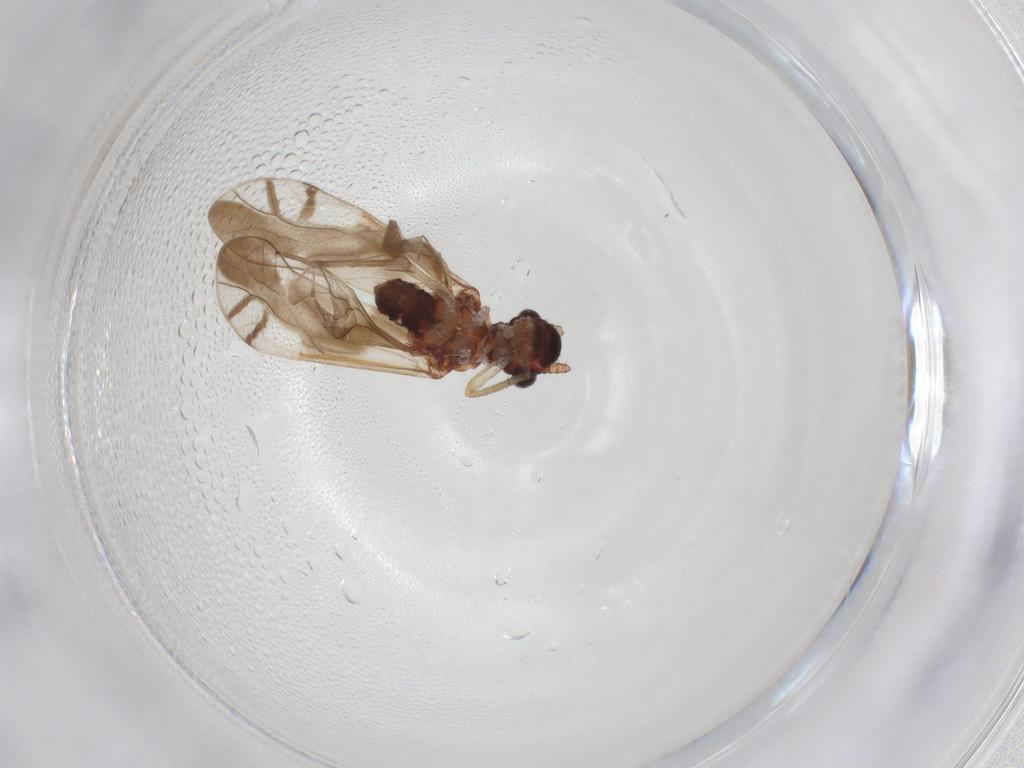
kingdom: Animalia
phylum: Arthropoda
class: Insecta
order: Psocodea
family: Caeciliusidae
